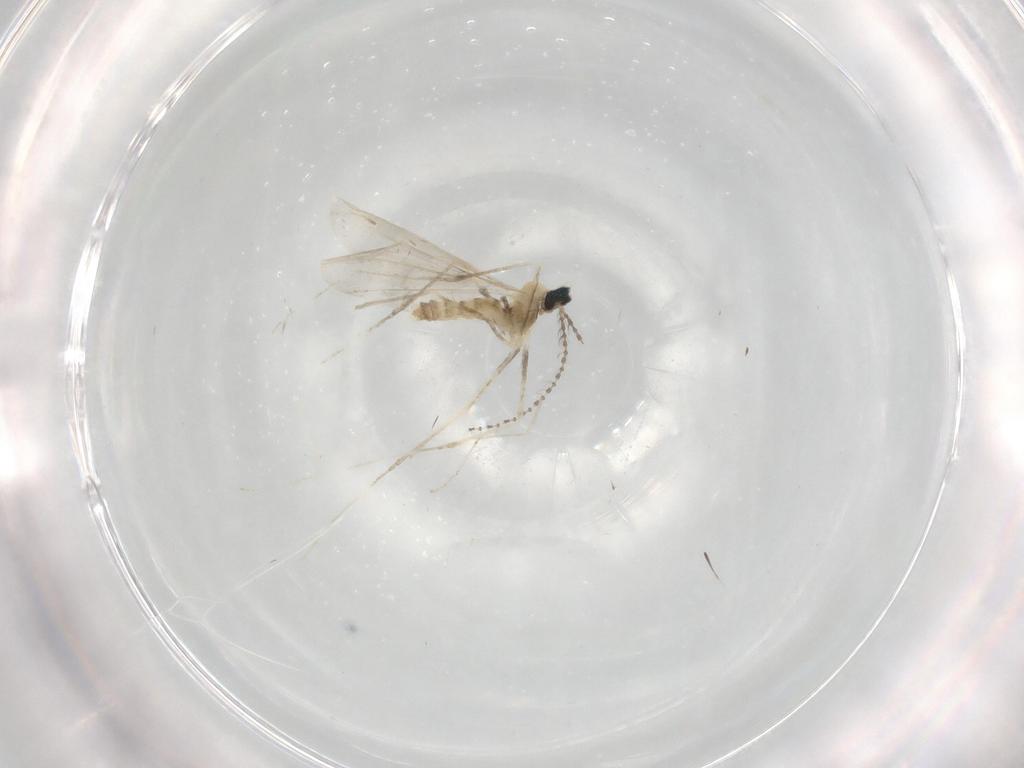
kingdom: Animalia
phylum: Arthropoda
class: Insecta
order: Diptera
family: Cecidomyiidae
